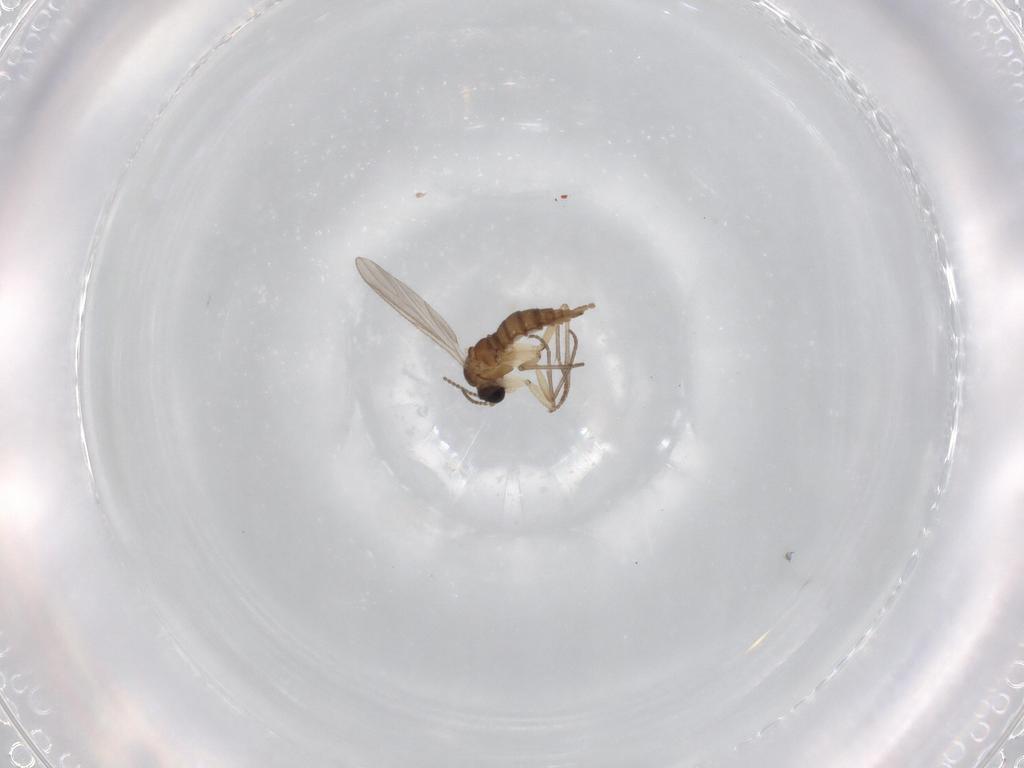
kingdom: Animalia
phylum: Arthropoda
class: Insecta
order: Diptera
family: Sciaridae
